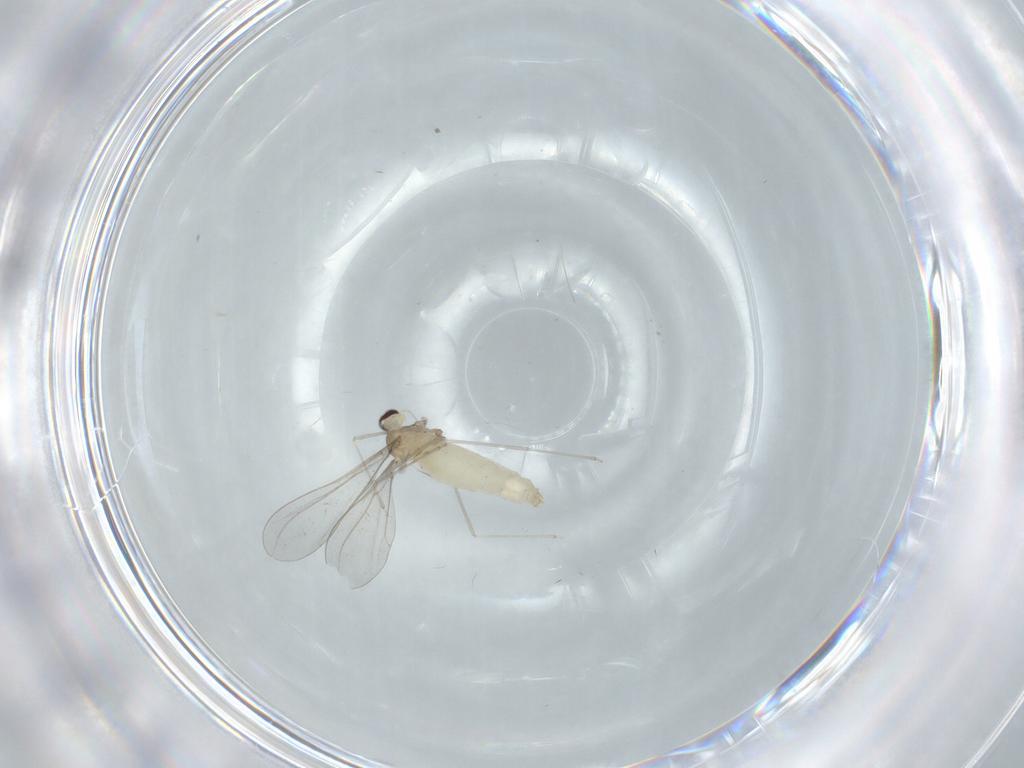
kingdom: Animalia
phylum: Arthropoda
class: Insecta
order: Diptera
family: Cecidomyiidae
